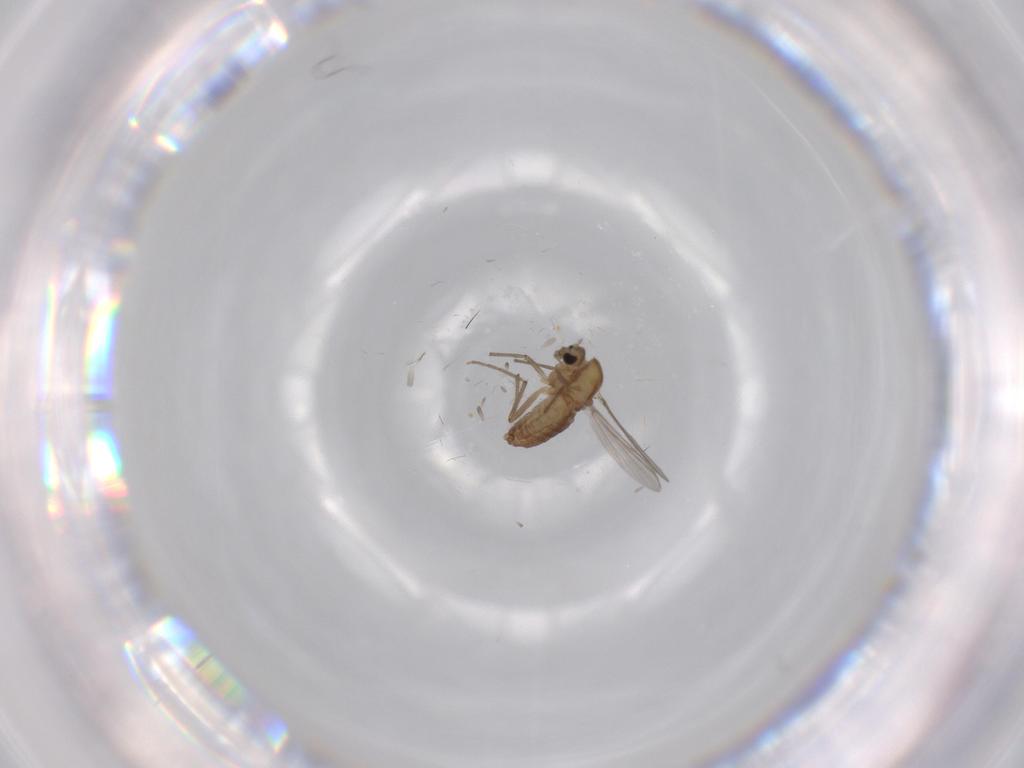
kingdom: Animalia
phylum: Arthropoda
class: Insecta
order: Diptera
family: Chironomidae
